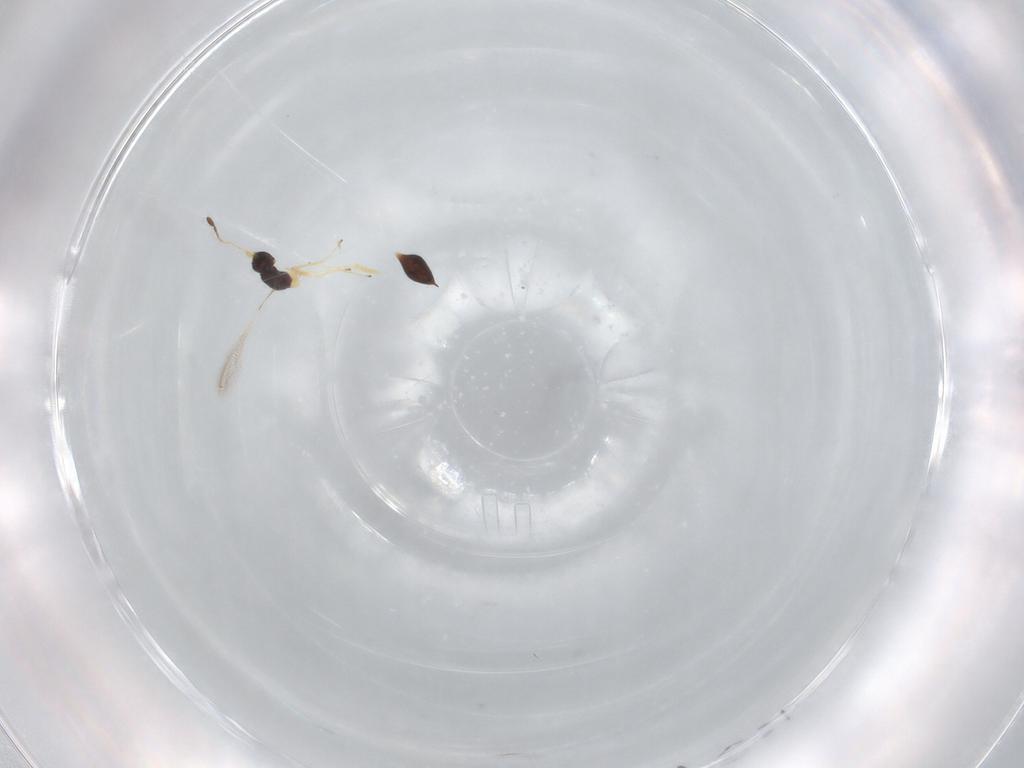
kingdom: Animalia
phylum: Arthropoda
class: Insecta
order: Hymenoptera
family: Mymaridae
